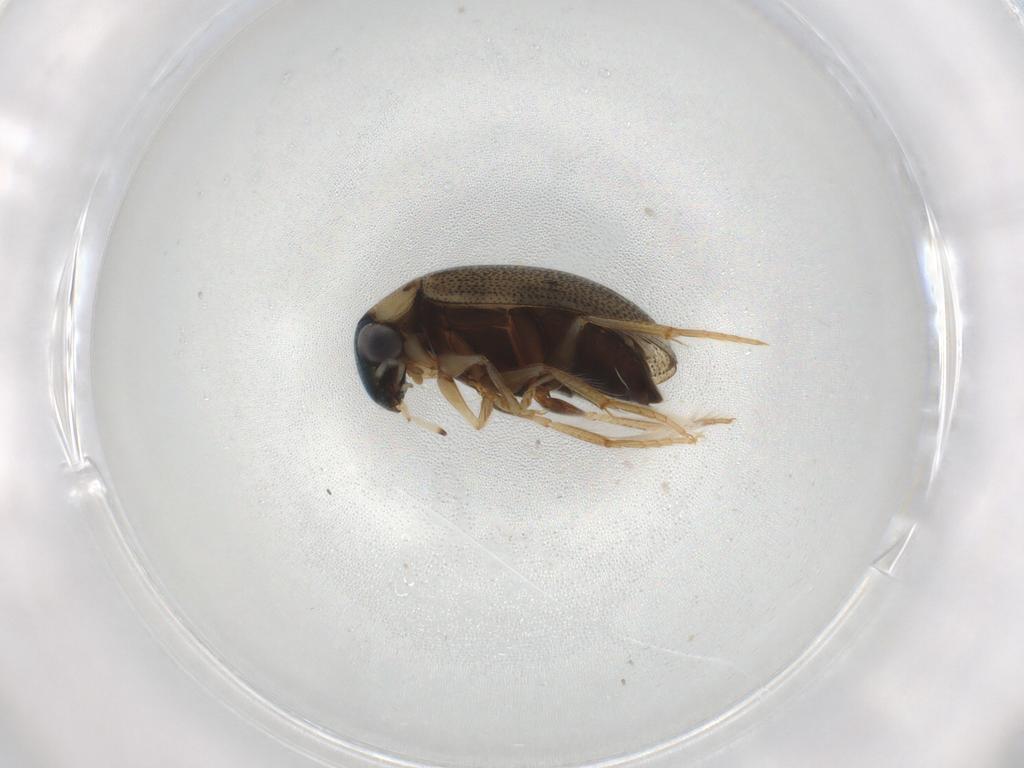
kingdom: Animalia
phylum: Arthropoda
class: Insecta
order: Coleoptera
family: Hydrophilidae
